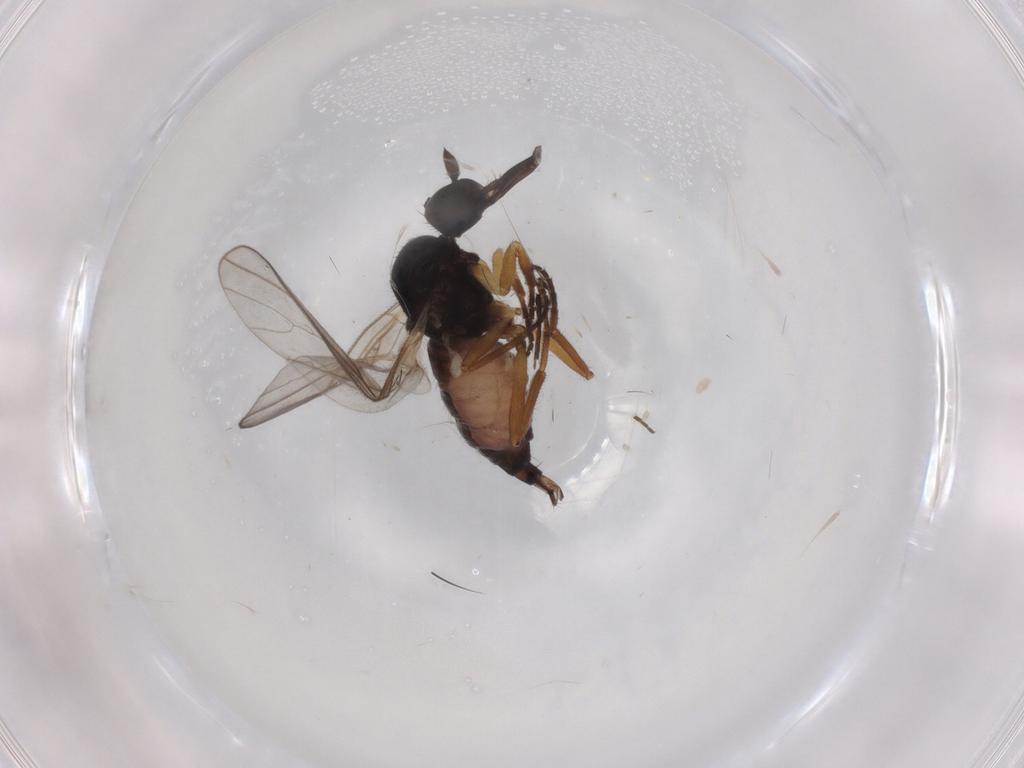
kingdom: Animalia
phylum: Arthropoda
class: Insecta
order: Diptera
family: Hybotidae
